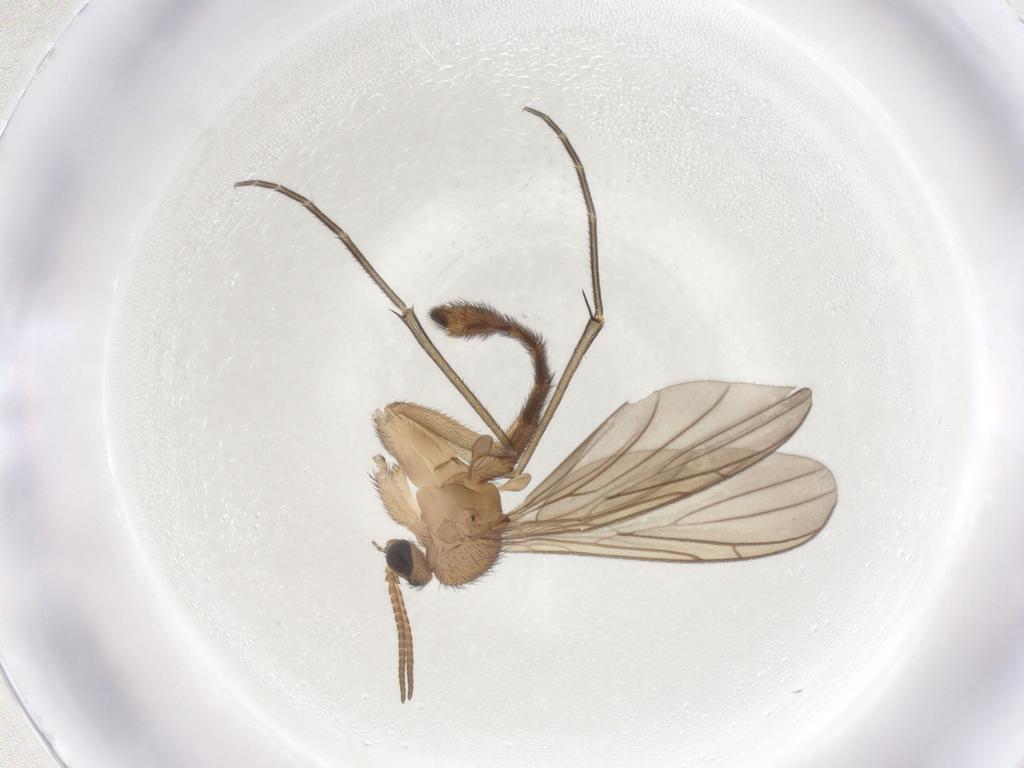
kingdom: Animalia
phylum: Arthropoda
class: Insecta
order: Diptera
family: Keroplatidae
